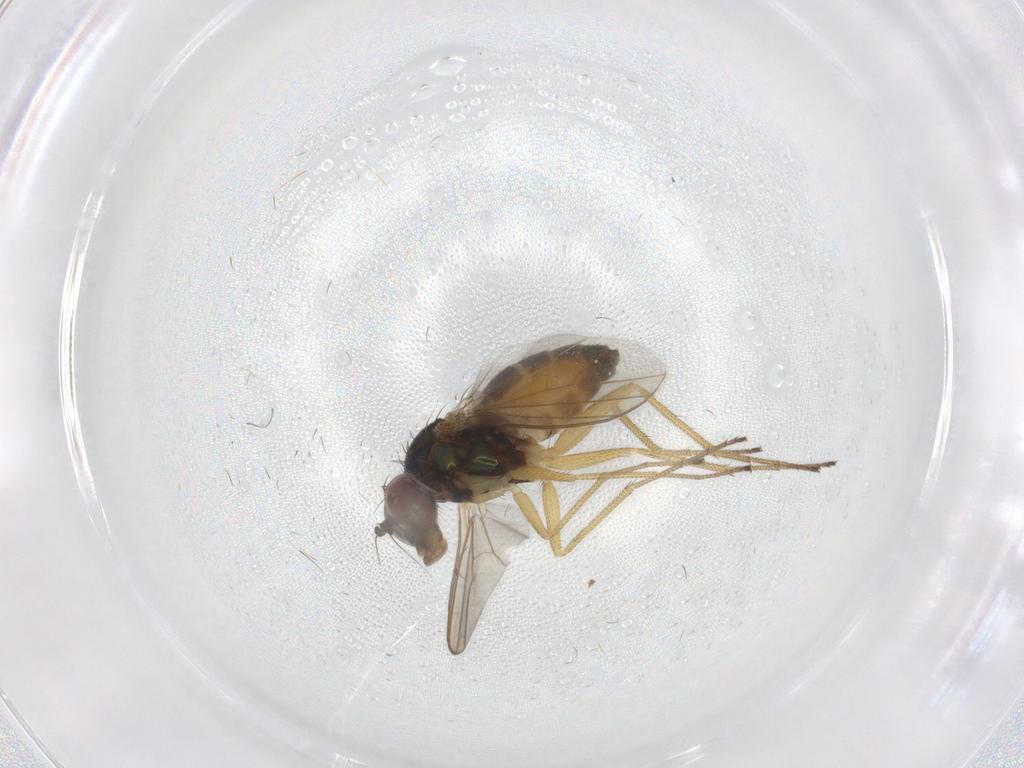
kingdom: Animalia
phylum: Arthropoda
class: Insecta
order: Diptera
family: Dolichopodidae
